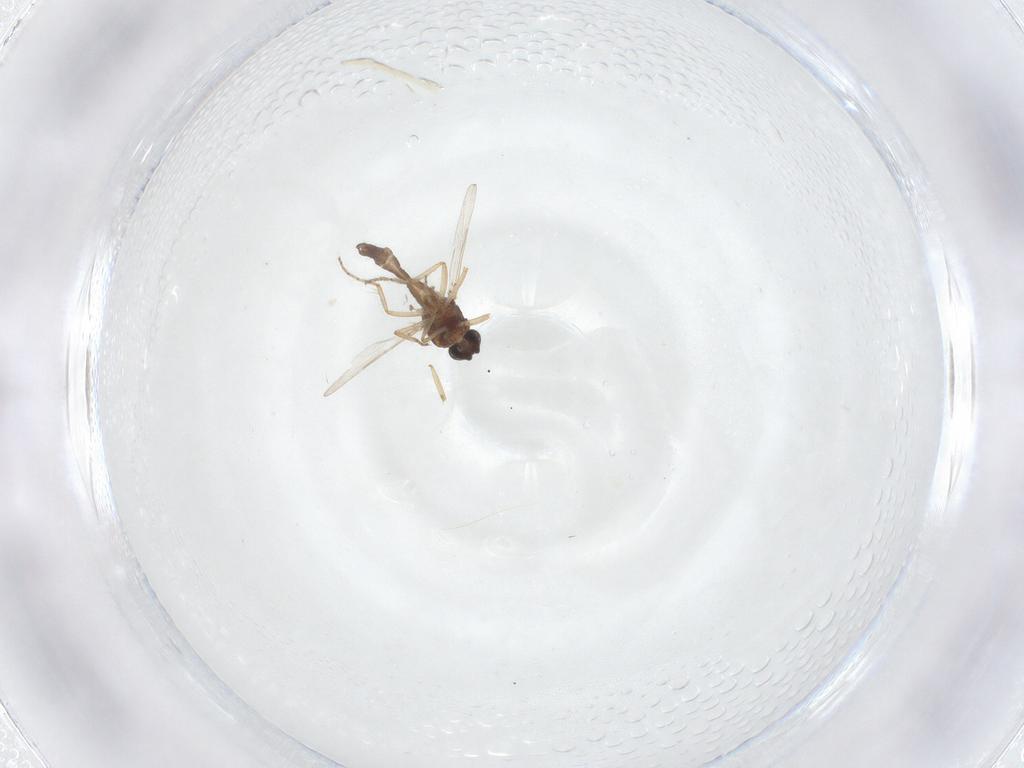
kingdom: Animalia
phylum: Arthropoda
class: Insecta
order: Diptera
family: Ceratopogonidae
